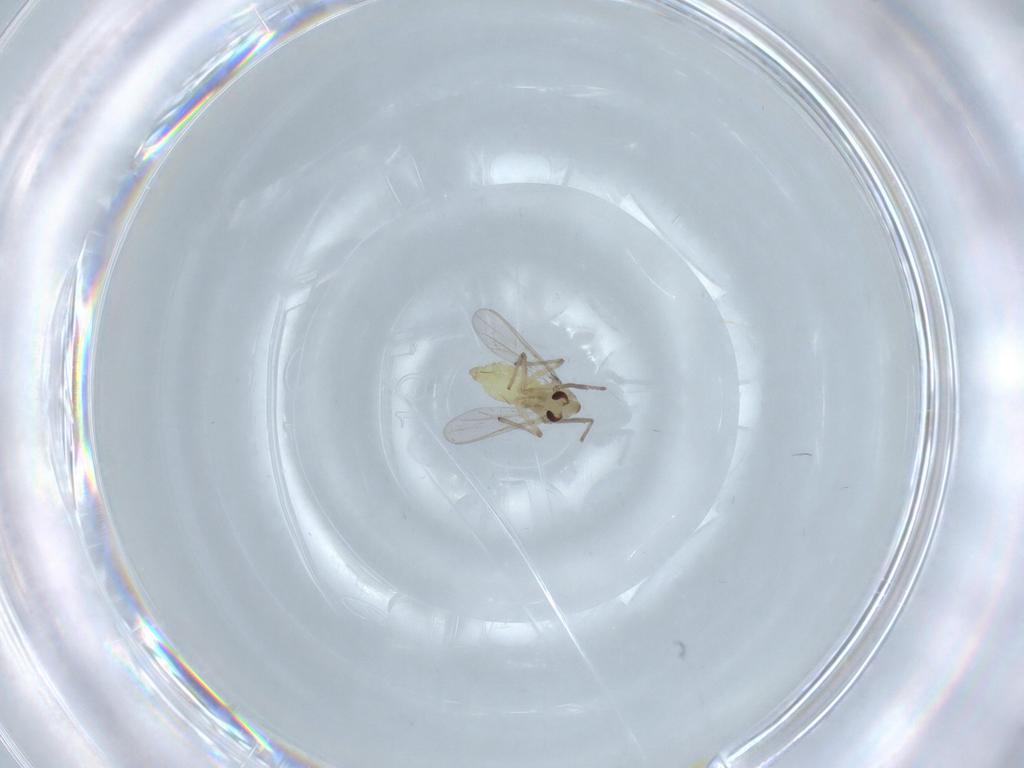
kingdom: Animalia
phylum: Arthropoda
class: Insecta
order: Diptera
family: Chironomidae
